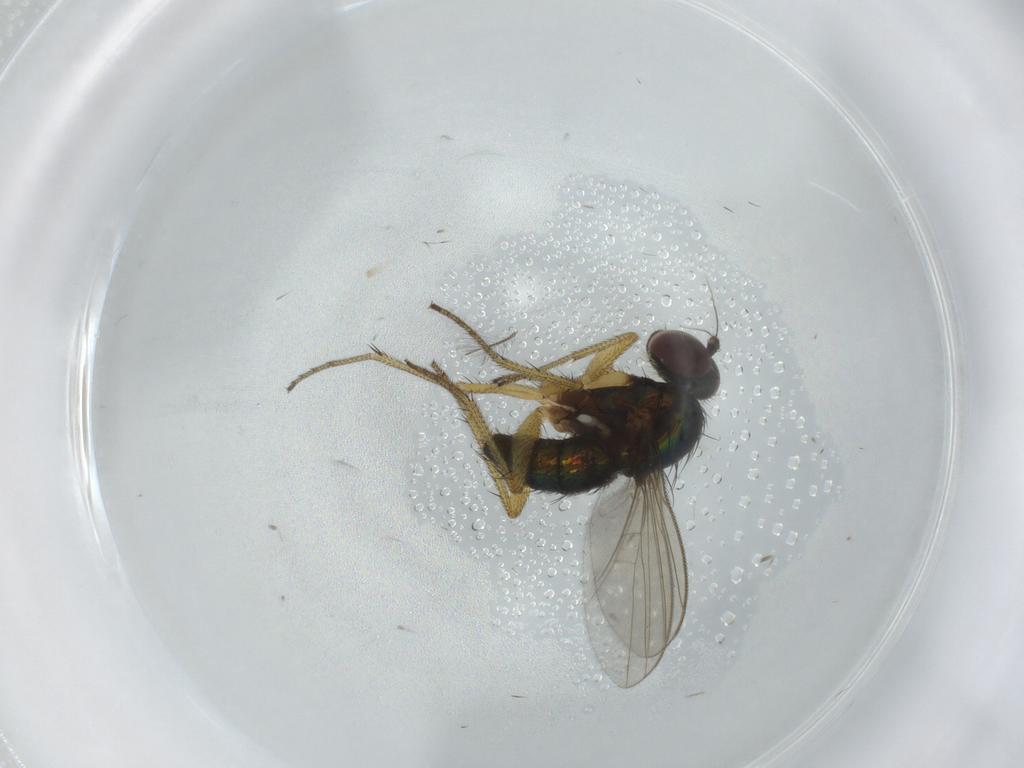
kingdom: Animalia
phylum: Arthropoda
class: Insecta
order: Diptera
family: Dolichopodidae
